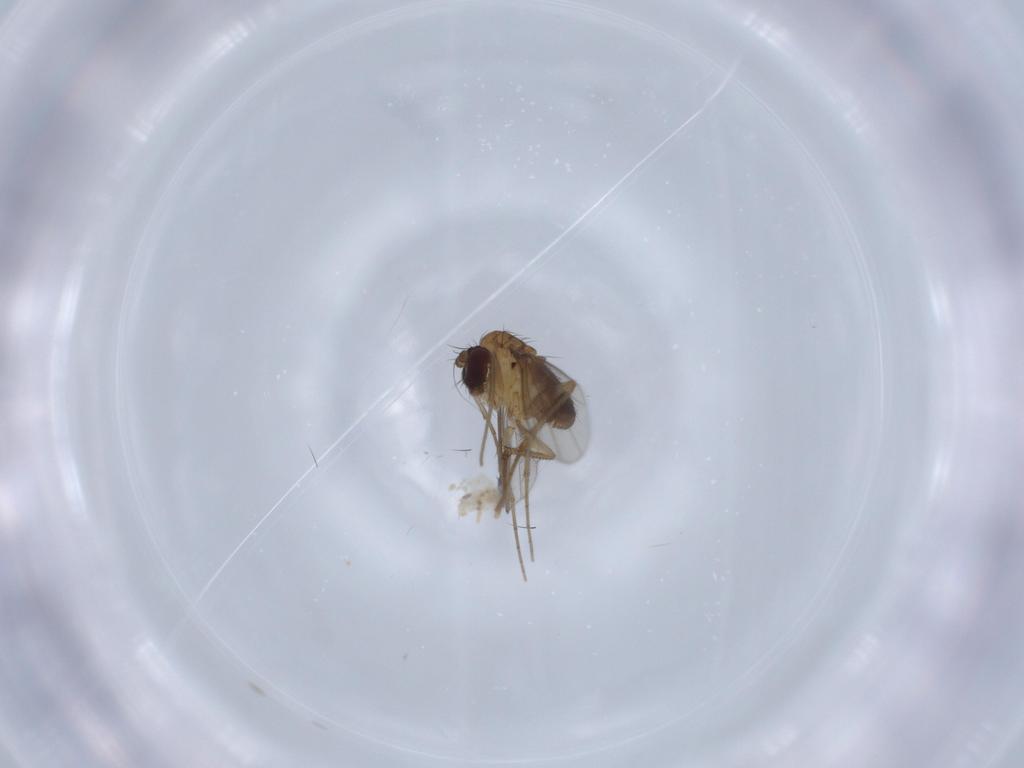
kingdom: Animalia
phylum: Arthropoda
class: Insecta
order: Diptera
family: Dolichopodidae
